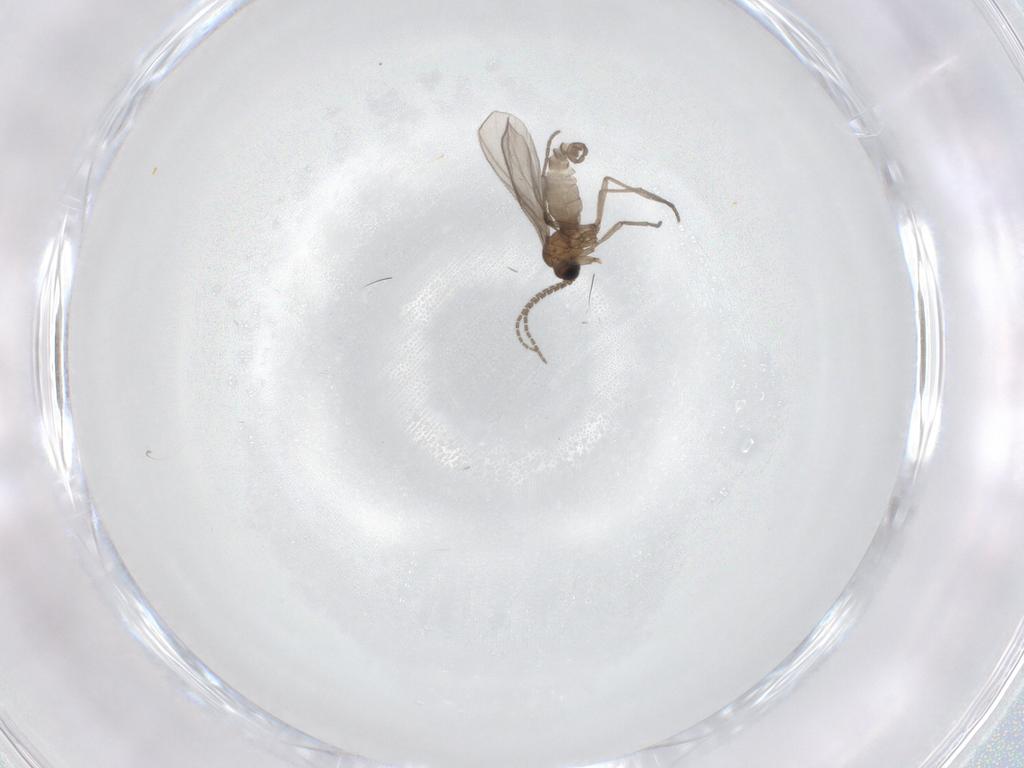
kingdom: Animalia
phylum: Arthropoda
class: Insecta
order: Diptera
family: Sciaridae
